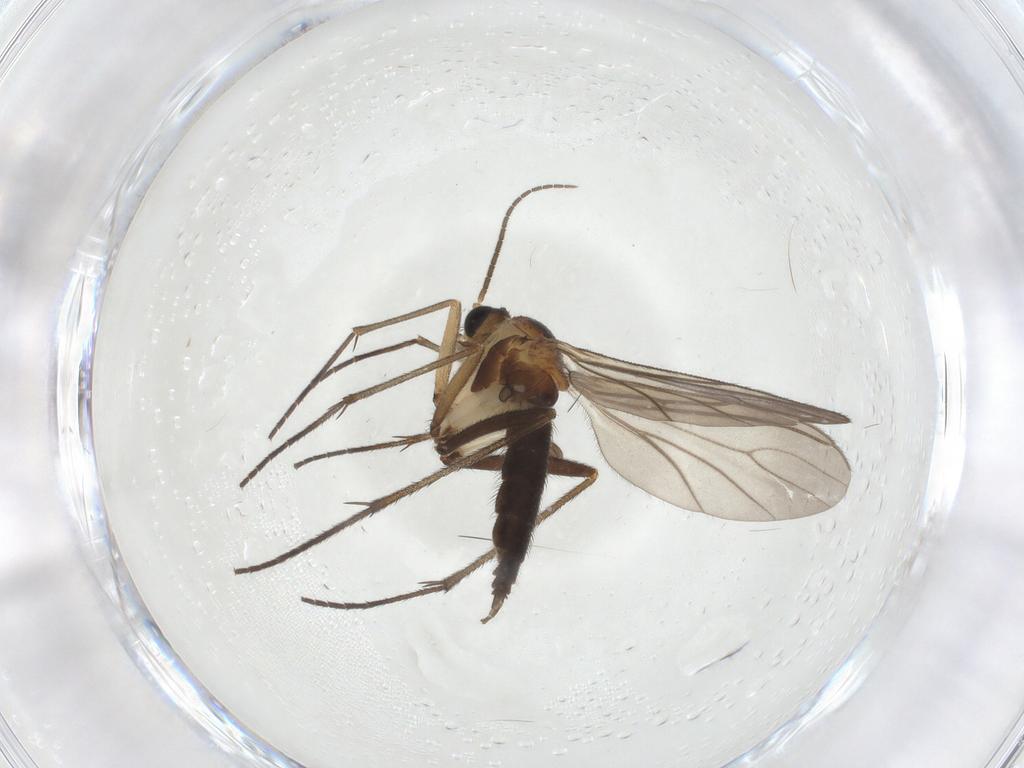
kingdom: Animalia
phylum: Arthropoda
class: Insecta
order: Diptera
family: Sciaridae
